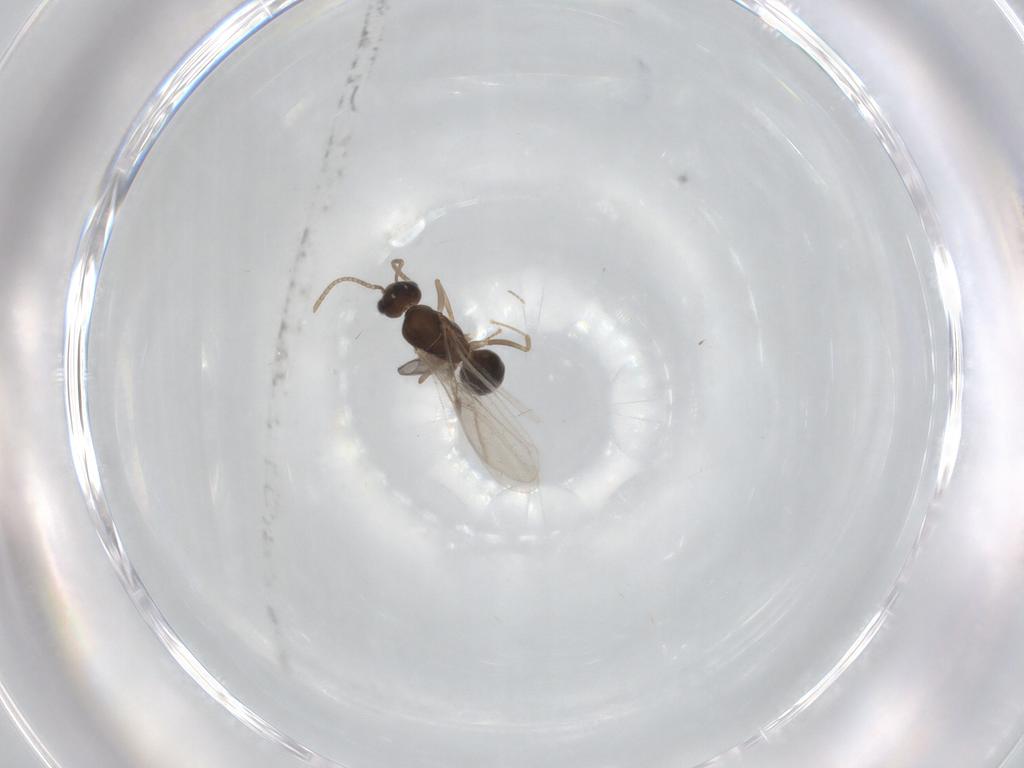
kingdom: Animalia
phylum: Arthropoda
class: Insecta
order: Hymenoptera
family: Formicidae
